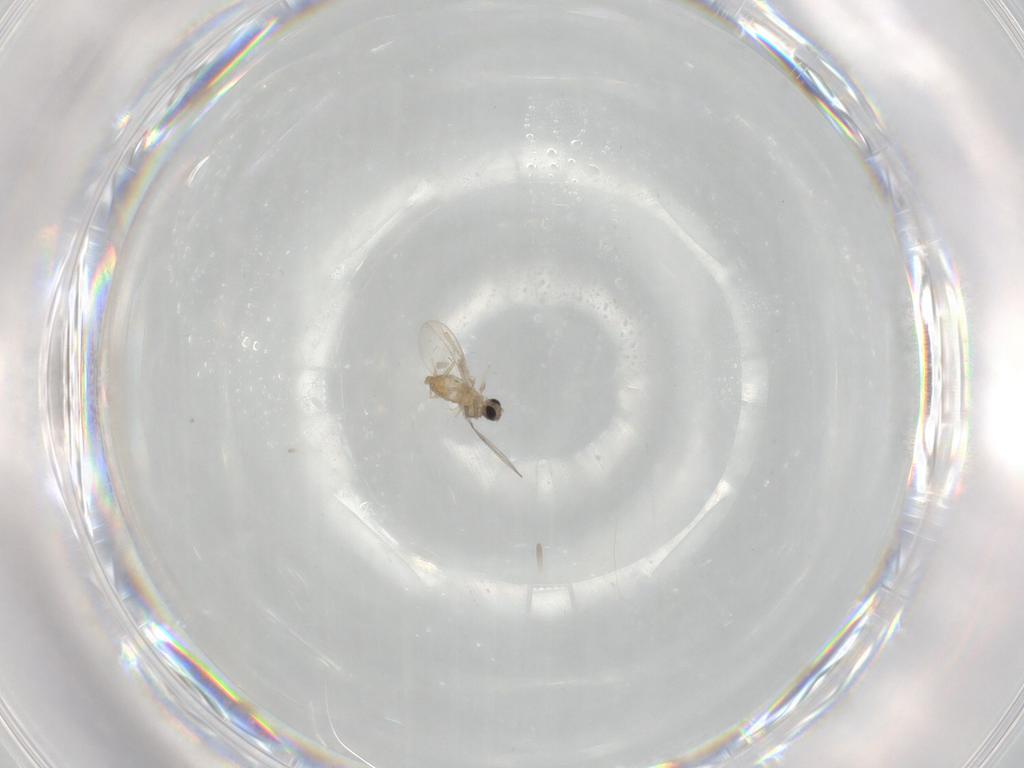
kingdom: Animalia
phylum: Arthropoda
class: Insecta
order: Diptera
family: Cecidomyiidae
